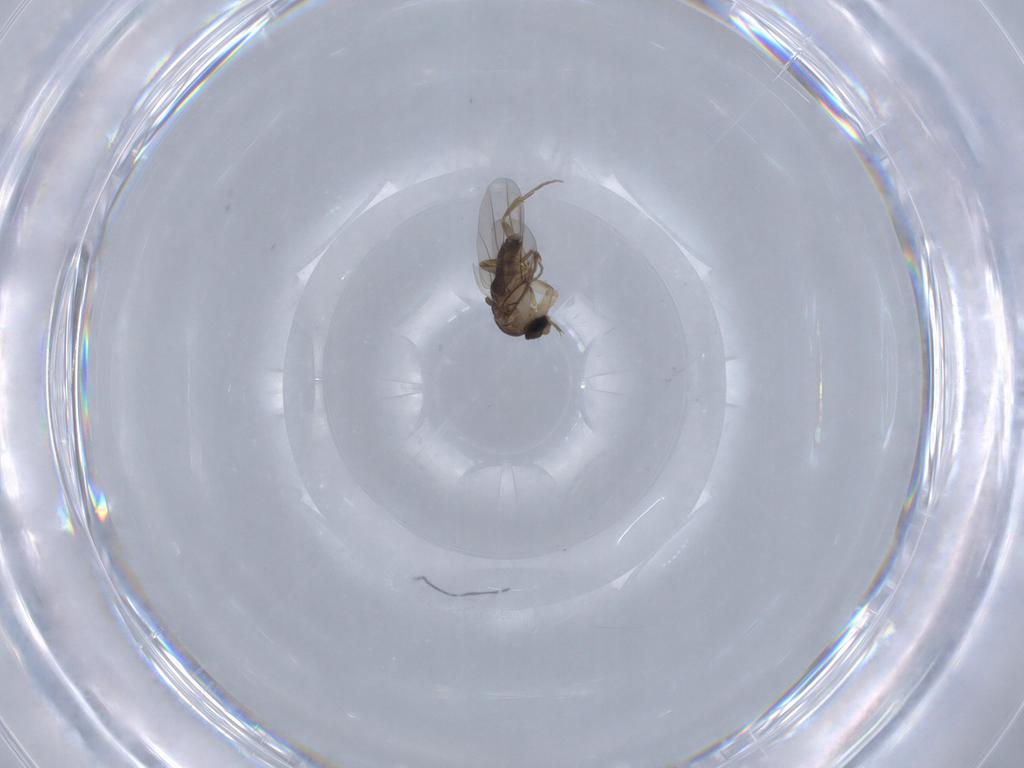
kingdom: Animalia
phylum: Arthropoda
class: Insecta
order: Diptera
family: Phoridae
